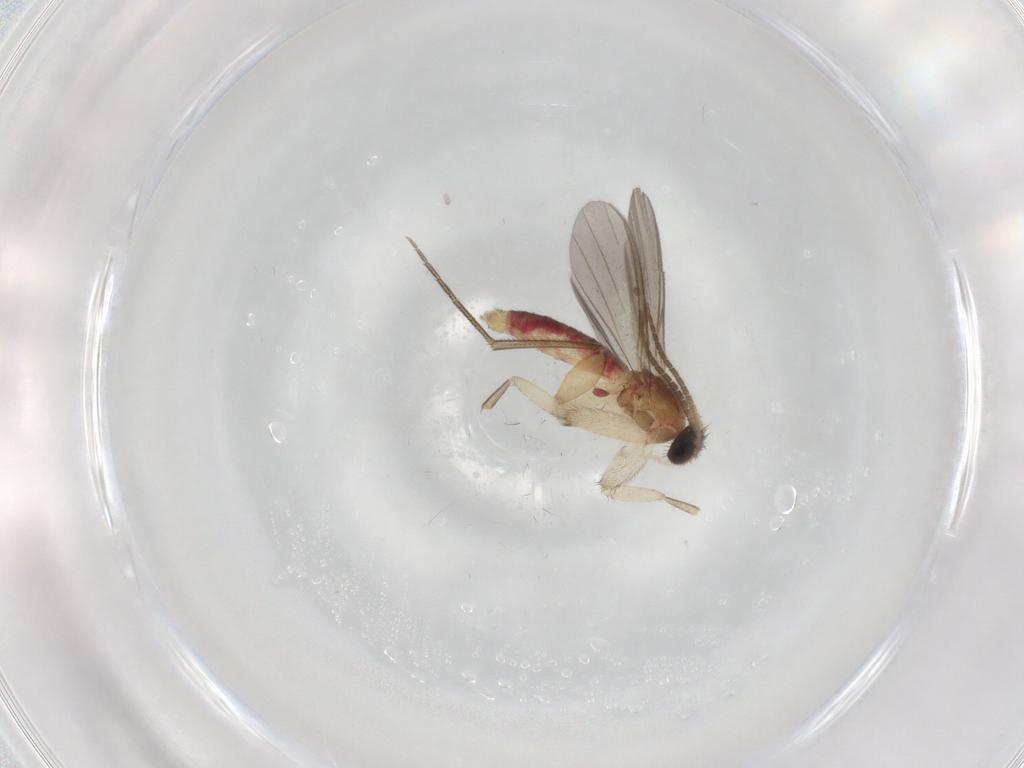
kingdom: Animalia
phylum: Arthropoda
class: Insecta
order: Diptera
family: Mycetophilidae
